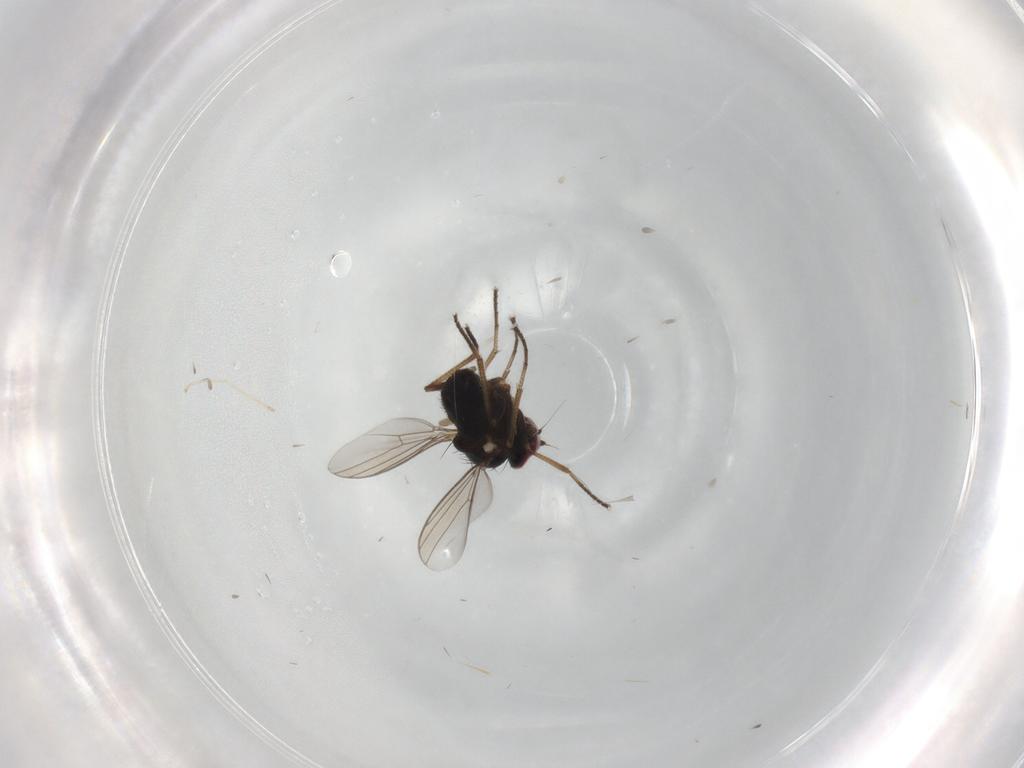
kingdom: Animalia
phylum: Arthropoda
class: Insecta
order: Diptera
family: Dolichopodidae
